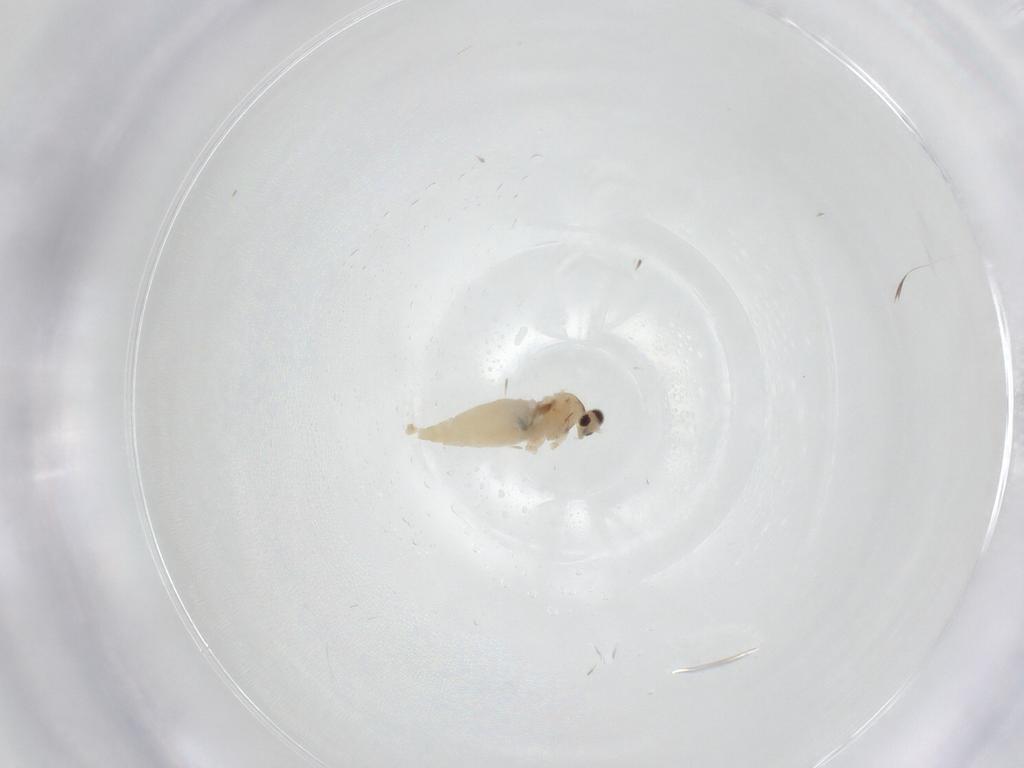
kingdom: Animalia
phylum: Arthropoda
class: Insecta
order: Diptera
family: Cecidomyiidae
